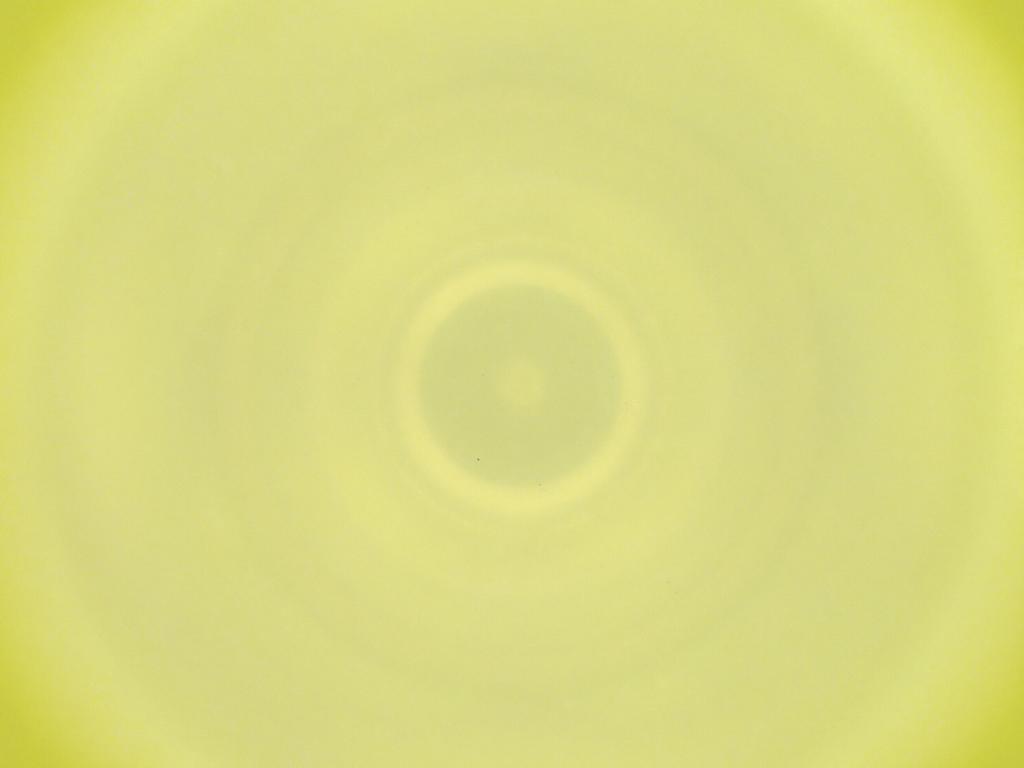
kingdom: Animalia
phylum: Arthropoda
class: Insecta
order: Diptera
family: Cecidomyiidae
